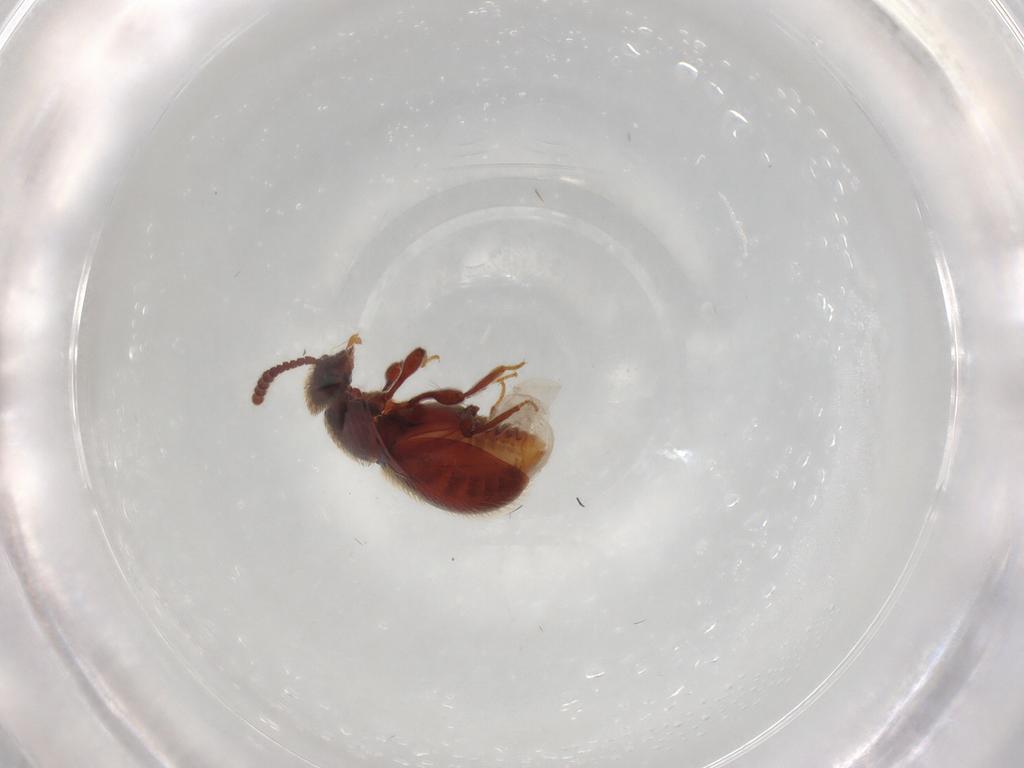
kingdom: Animalia
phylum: Arthropoda
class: Insecta
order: Coleoptera
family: Staphylinidae
